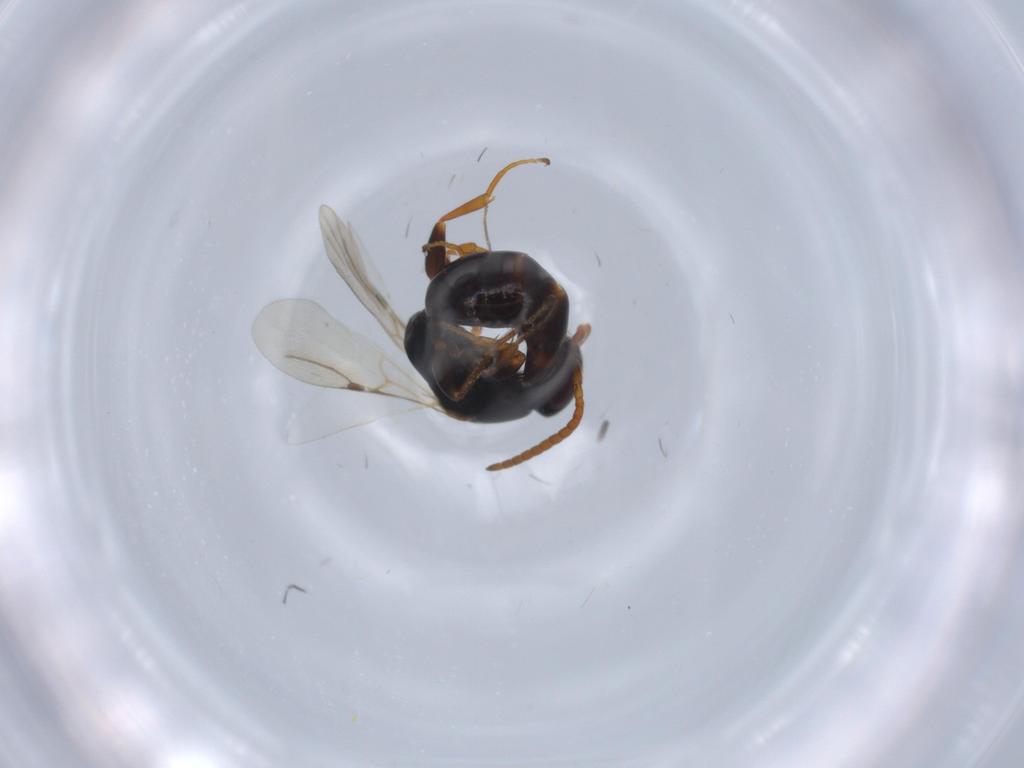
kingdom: Animalia
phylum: Arthropoda
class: Insecta
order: Hymenoptera
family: Bethylidae
